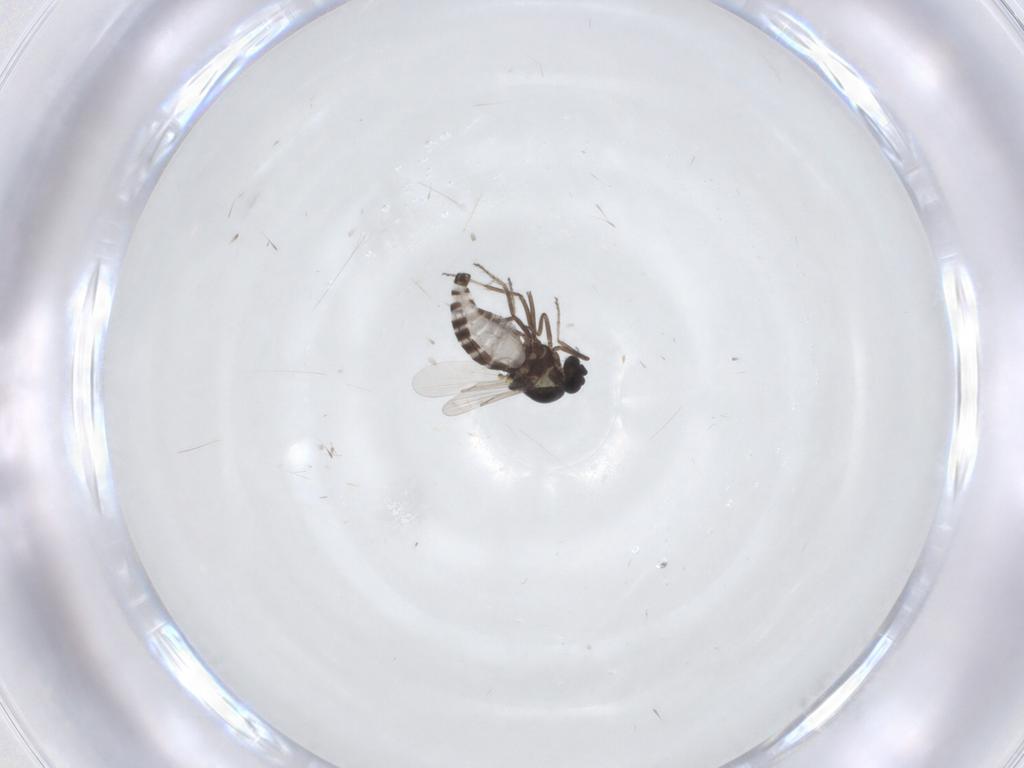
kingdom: Animalia
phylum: Arthropoda
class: Insecta
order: Diptera
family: Ceratopogonidae
